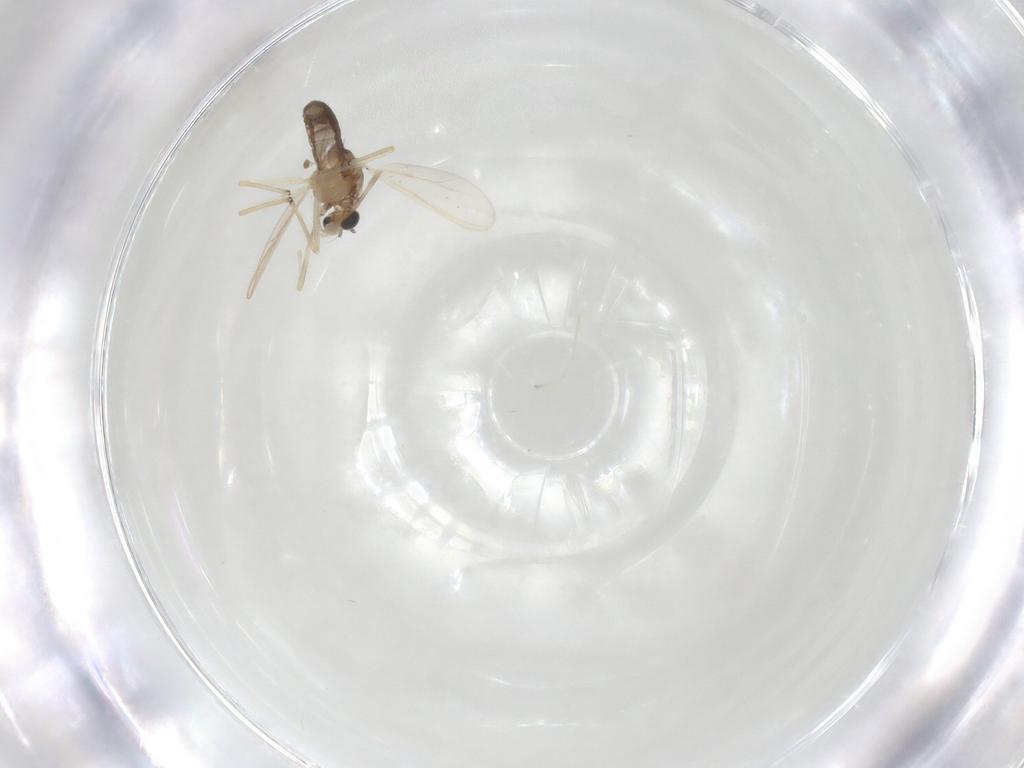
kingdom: Animalia
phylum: Arthropoda
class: Insecta
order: Diptera
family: Chironomidae
